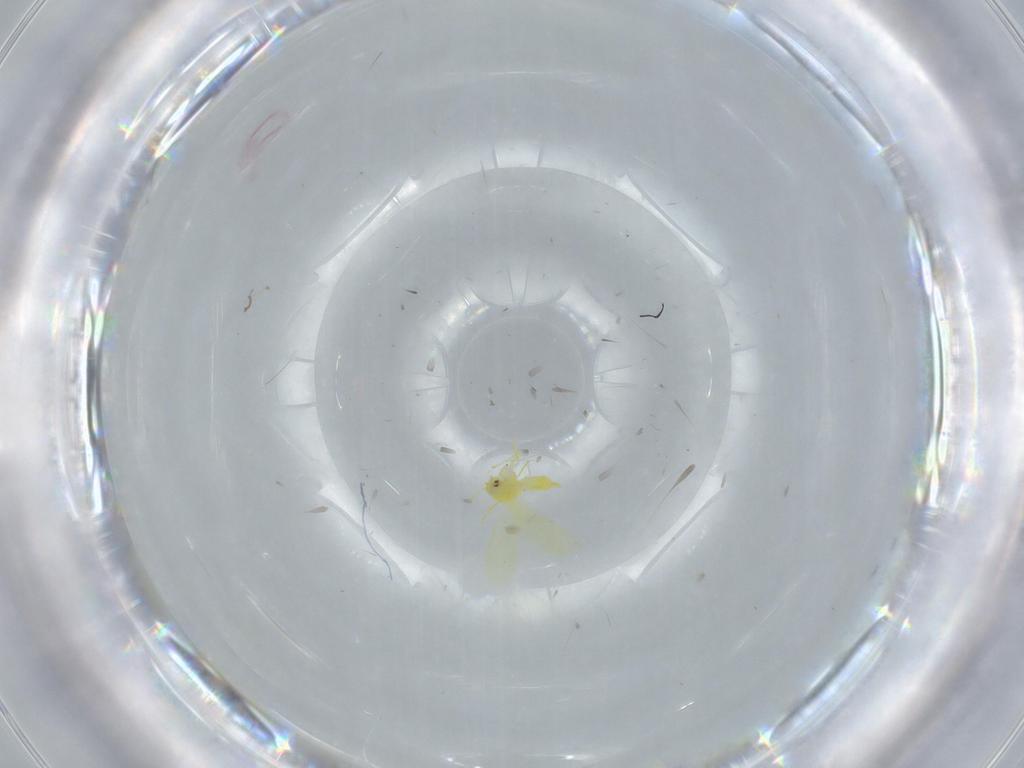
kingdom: Animalia
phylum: Arthropoda
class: Insecta
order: Hemiptera
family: Aleyrodidae
